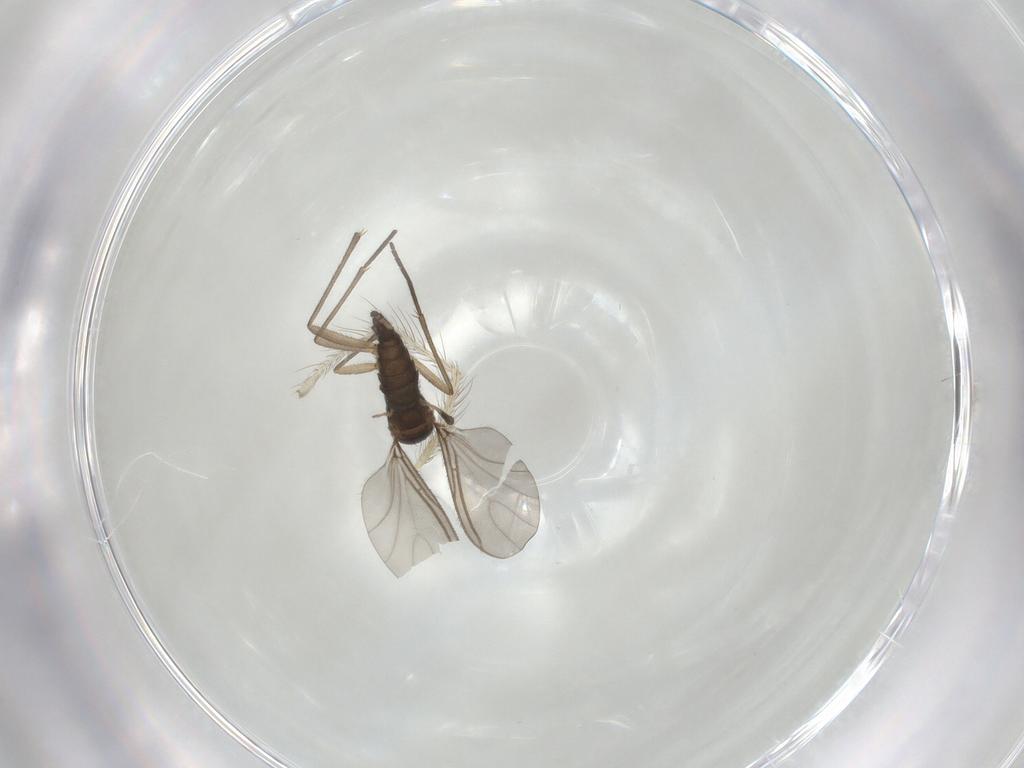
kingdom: Animalia
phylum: Arthropoda
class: Insecta
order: Diptera
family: Sciaridae
